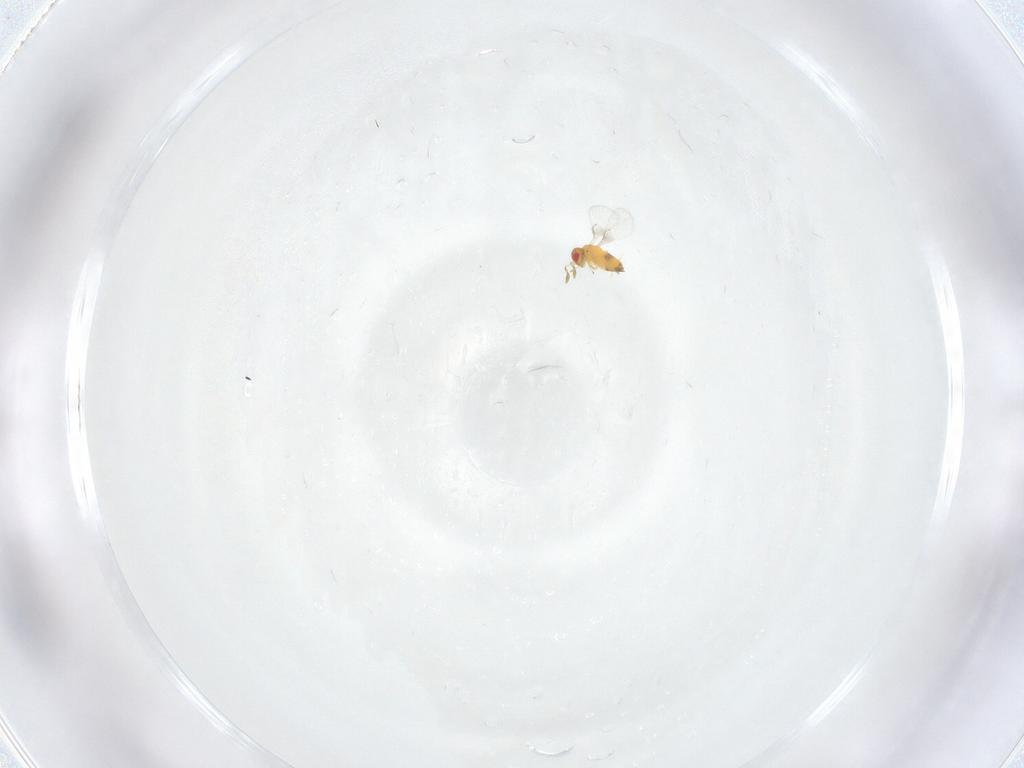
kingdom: Animalia
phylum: Arthropoda
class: Insecta
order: Hymenoptera
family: Trichogrammatidae
